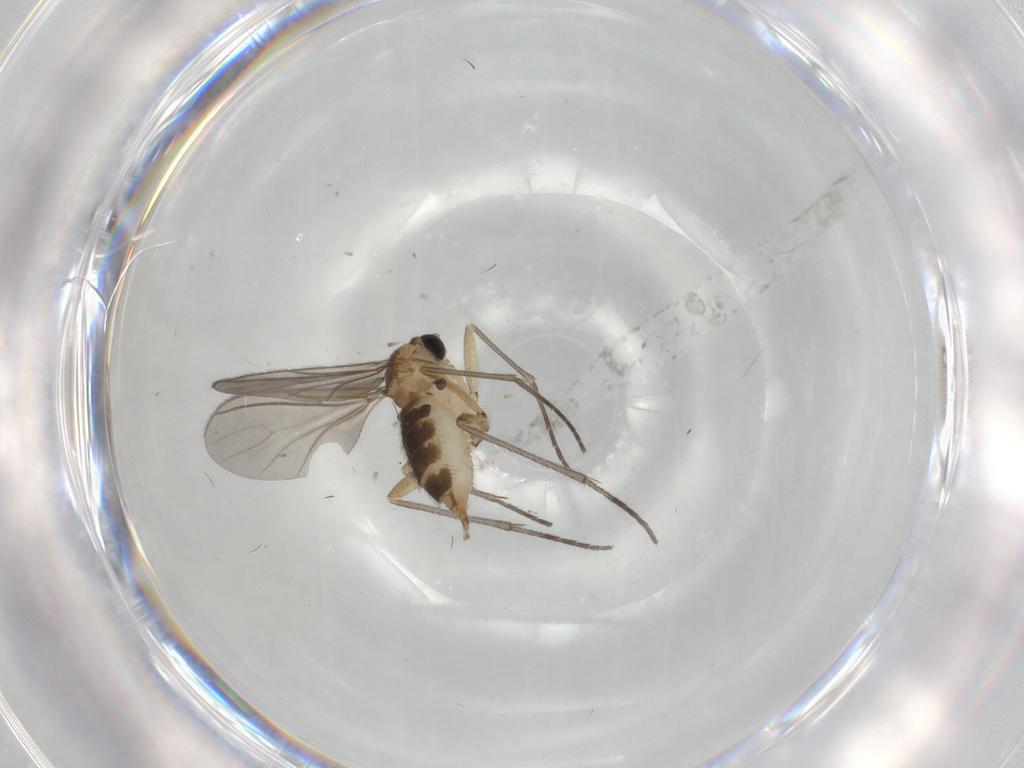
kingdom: Animalia
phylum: Arthropoda
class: Insecta
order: Diptera
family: Sciaridae
